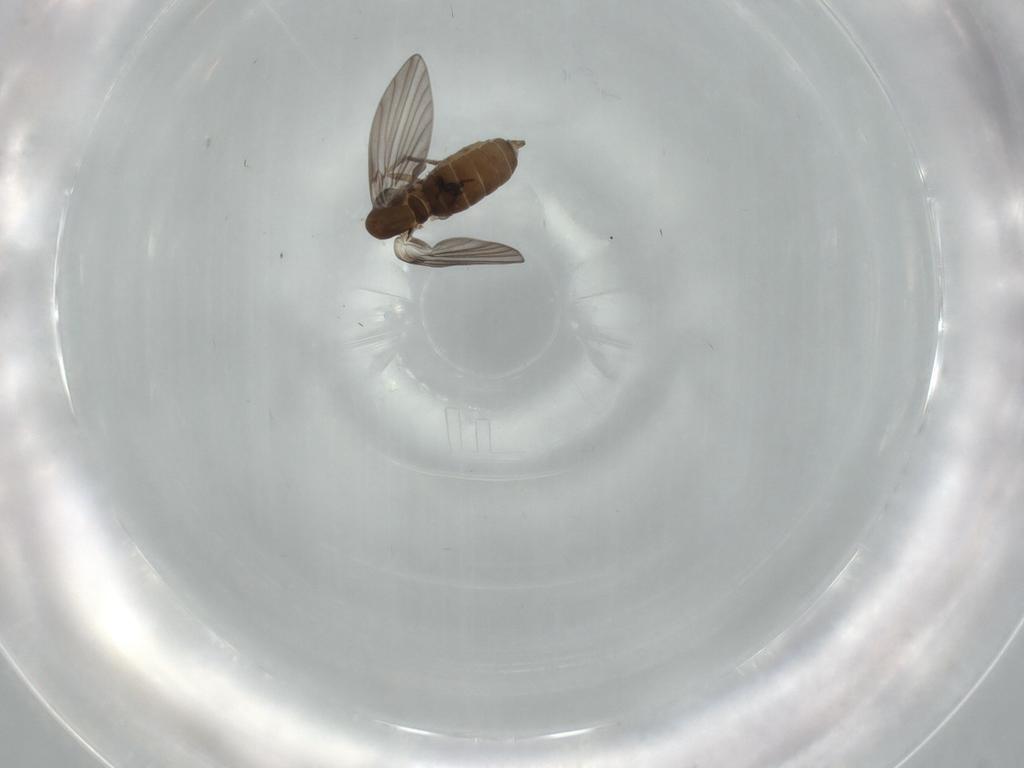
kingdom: Animalia
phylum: Arthropoda
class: Insecta
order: Diptera
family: Psychodidae
